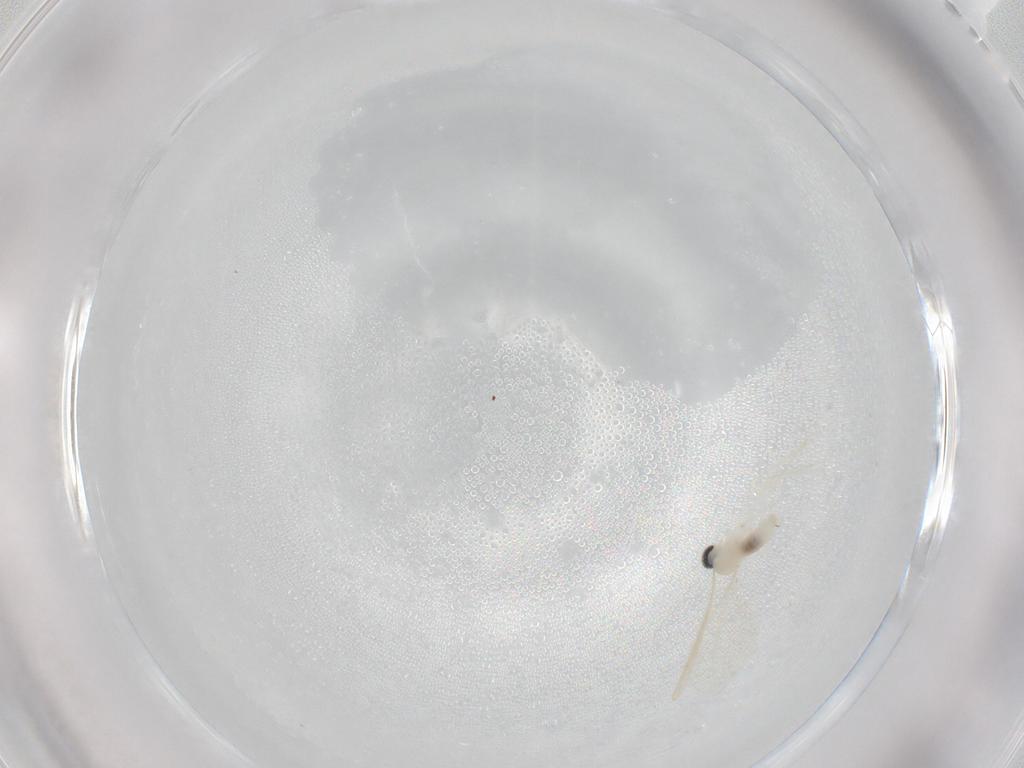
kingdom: Animalia
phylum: Arthropoda
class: Insecta
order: Diptera
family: Cecidomyiidae
